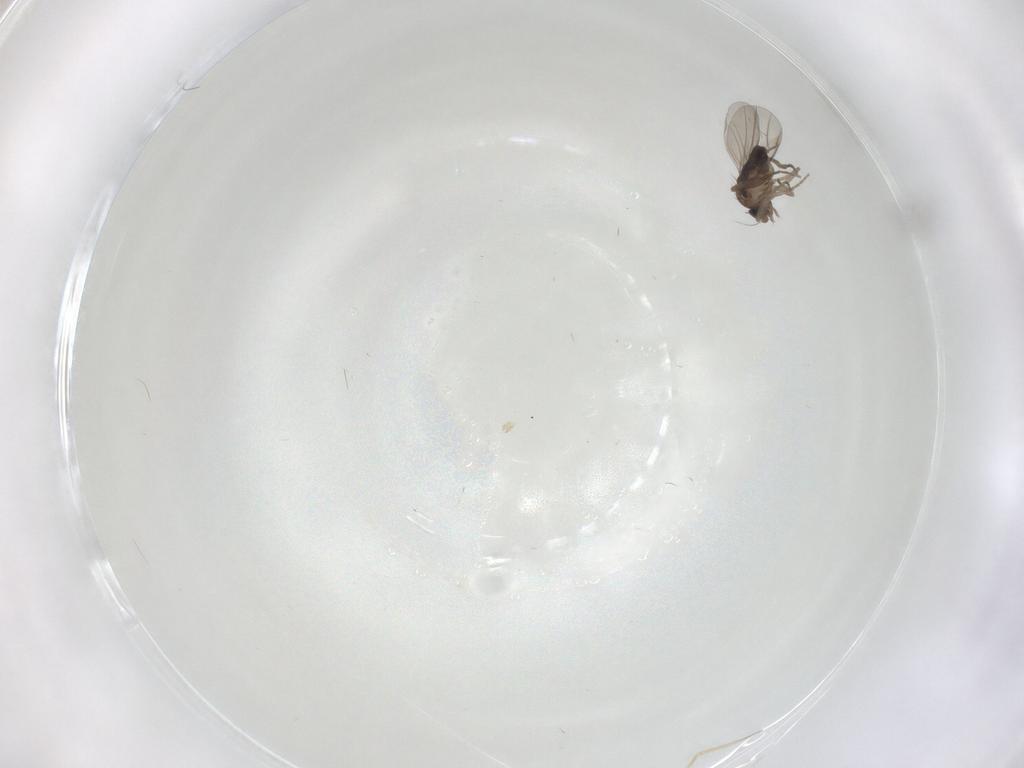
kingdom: Animalia
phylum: Arthropoda
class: Insecta
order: Diptera
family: Phoridae
